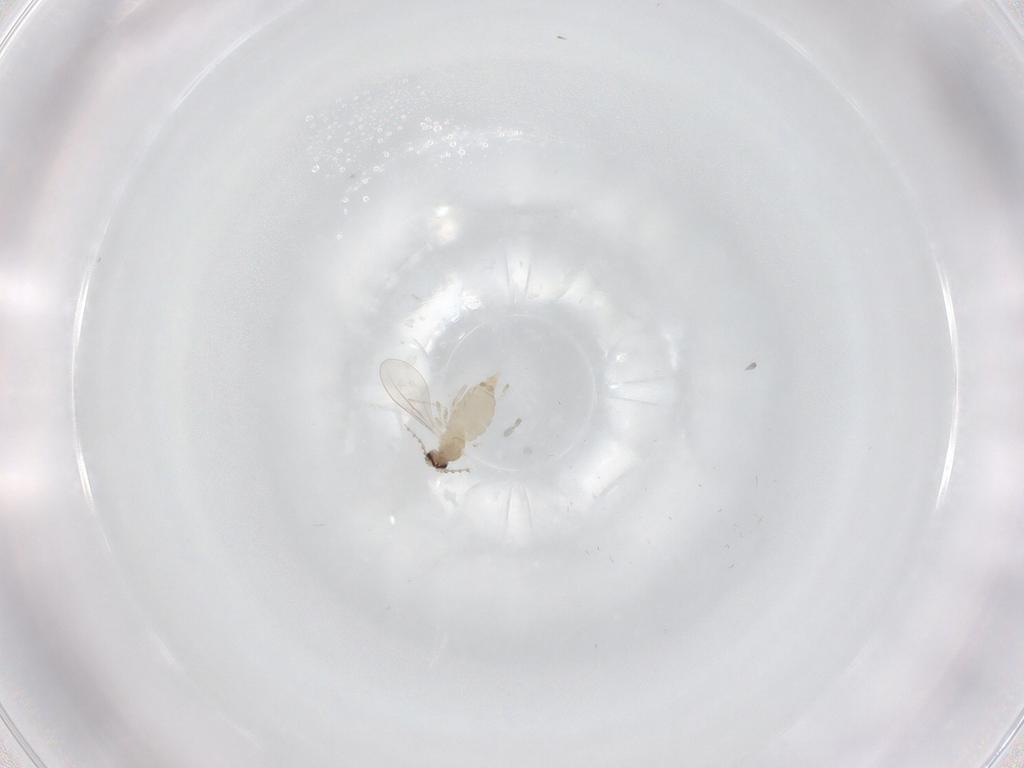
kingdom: Animalia
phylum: Arthropoda
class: Insecta
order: Diptera
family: Cecidomyiidae
